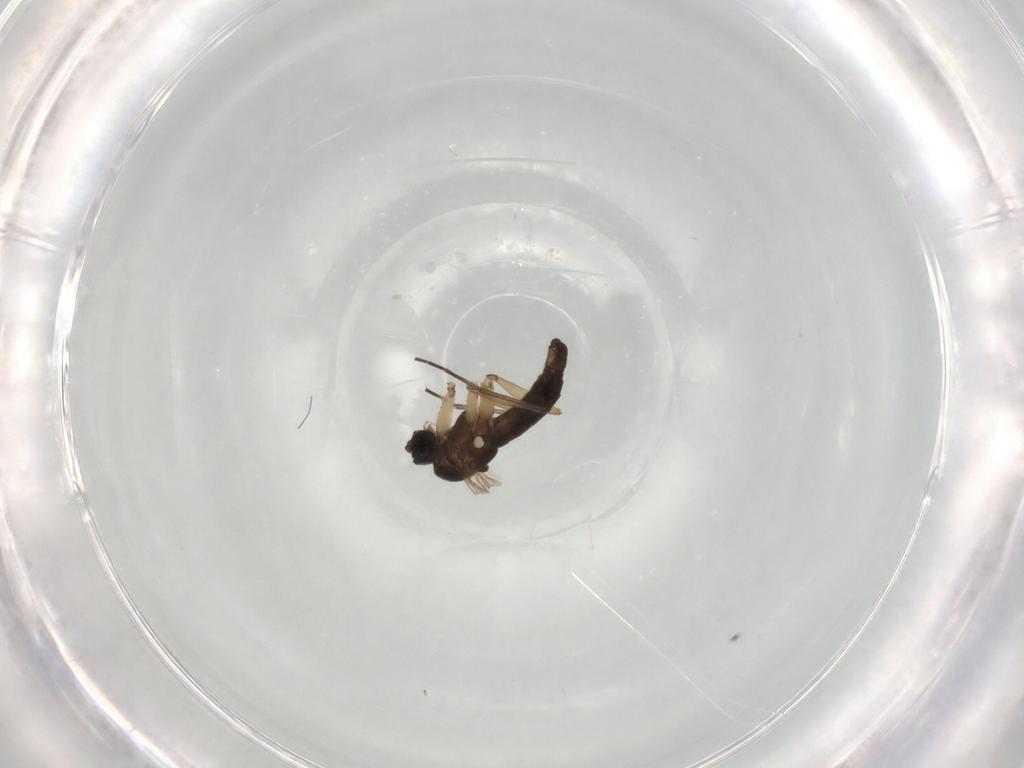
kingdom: Animalia
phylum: Arthropoda
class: Insecta
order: Diptera
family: Sciaridae
